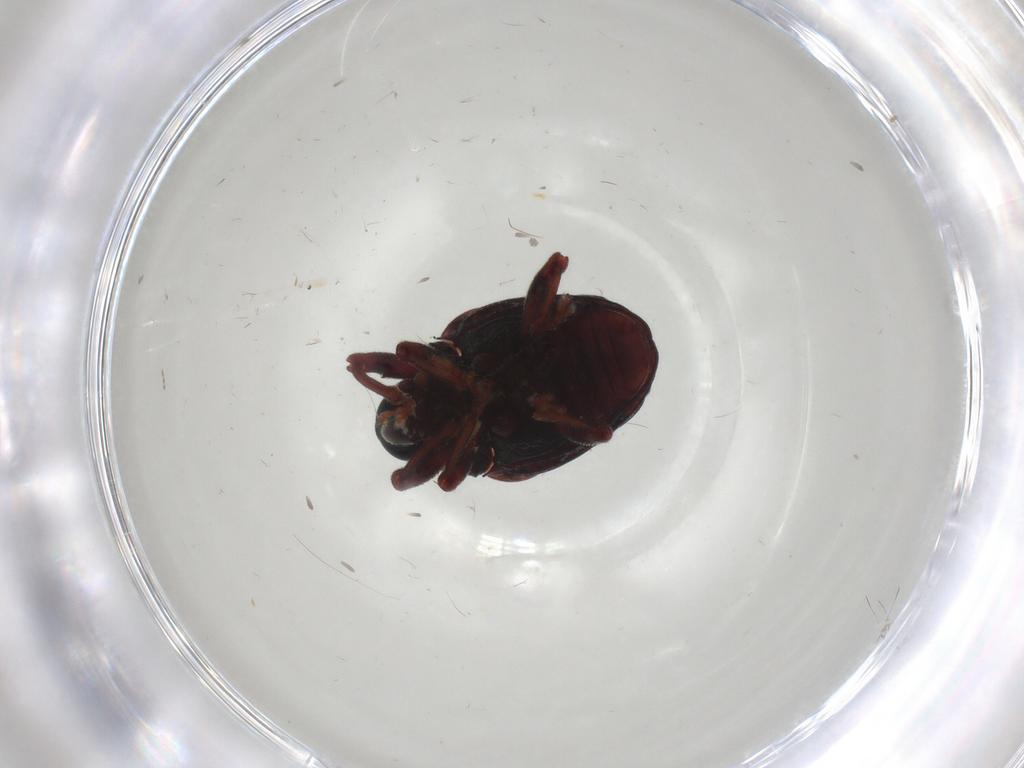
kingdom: Animalia
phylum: Arthropoda
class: Insecta
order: Coleoptera
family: Curculionidae
